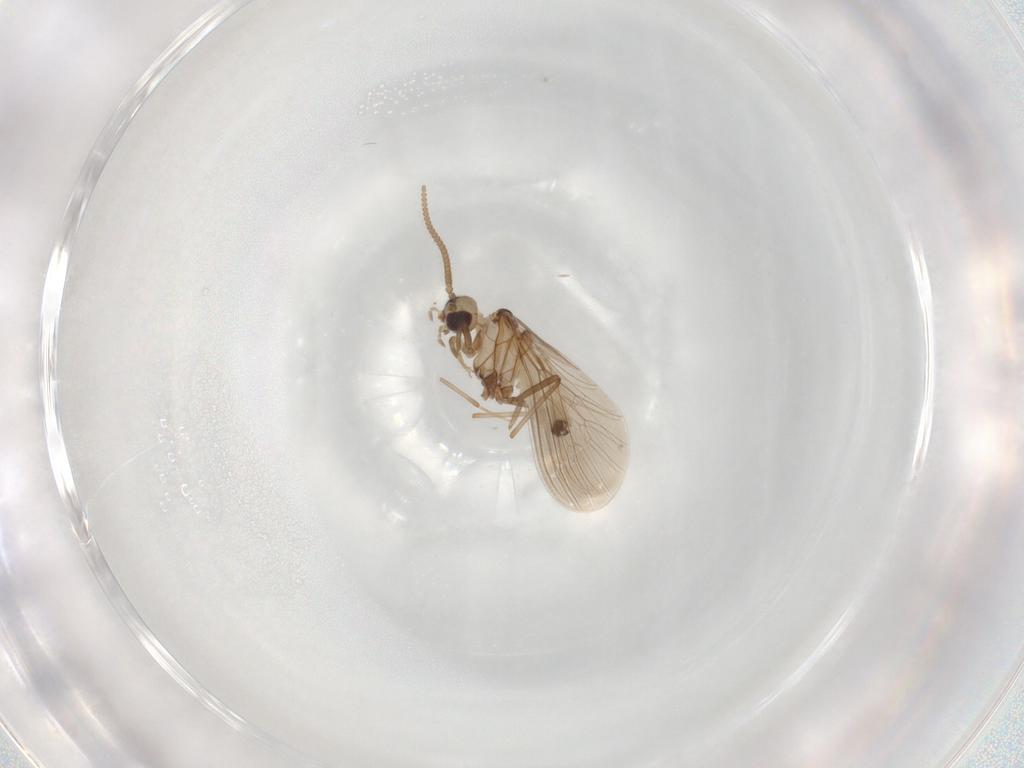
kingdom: Animalia
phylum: Arthropoda
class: Insecta
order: Neuroptera
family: Coniopterygidae
